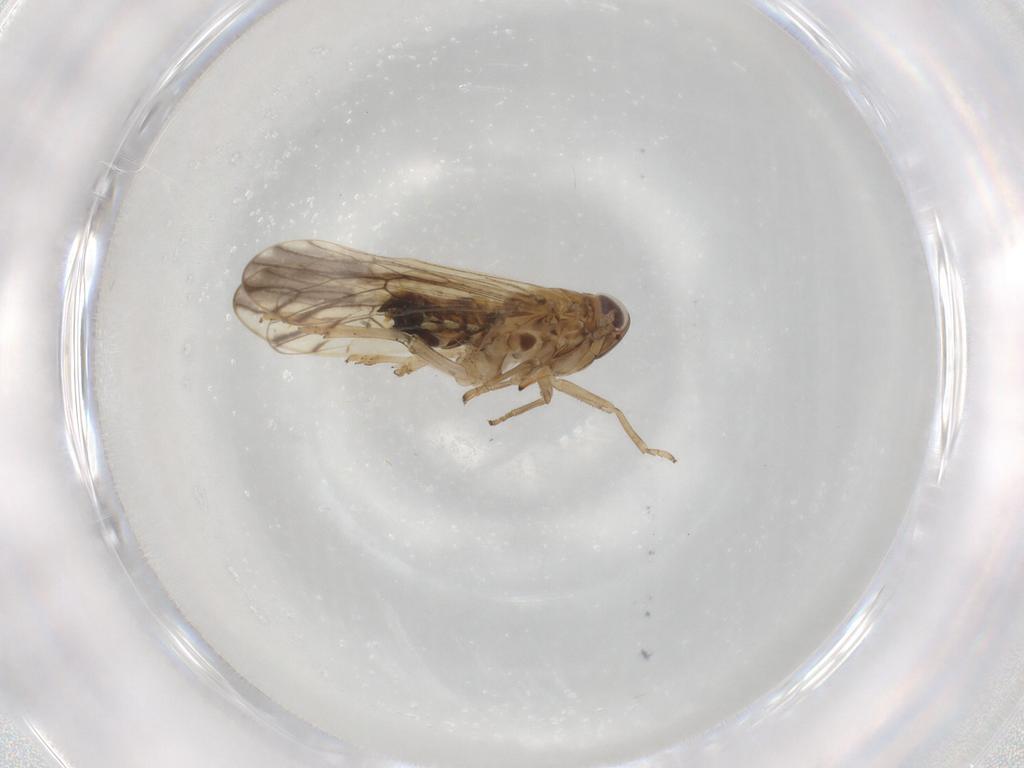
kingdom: Animalia
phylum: Arthropoda
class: Insecta
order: Hemiptera
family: Delphacidae
